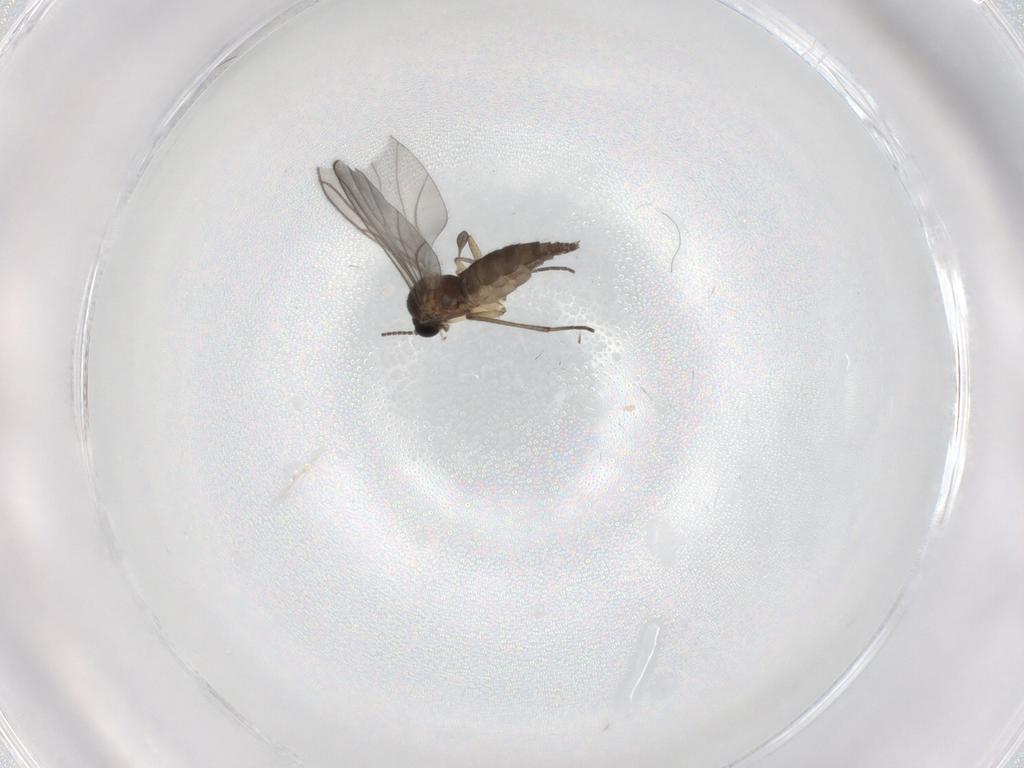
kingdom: Animalia
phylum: Arthropoda
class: Insecta
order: Diptera
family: Sciaridae
